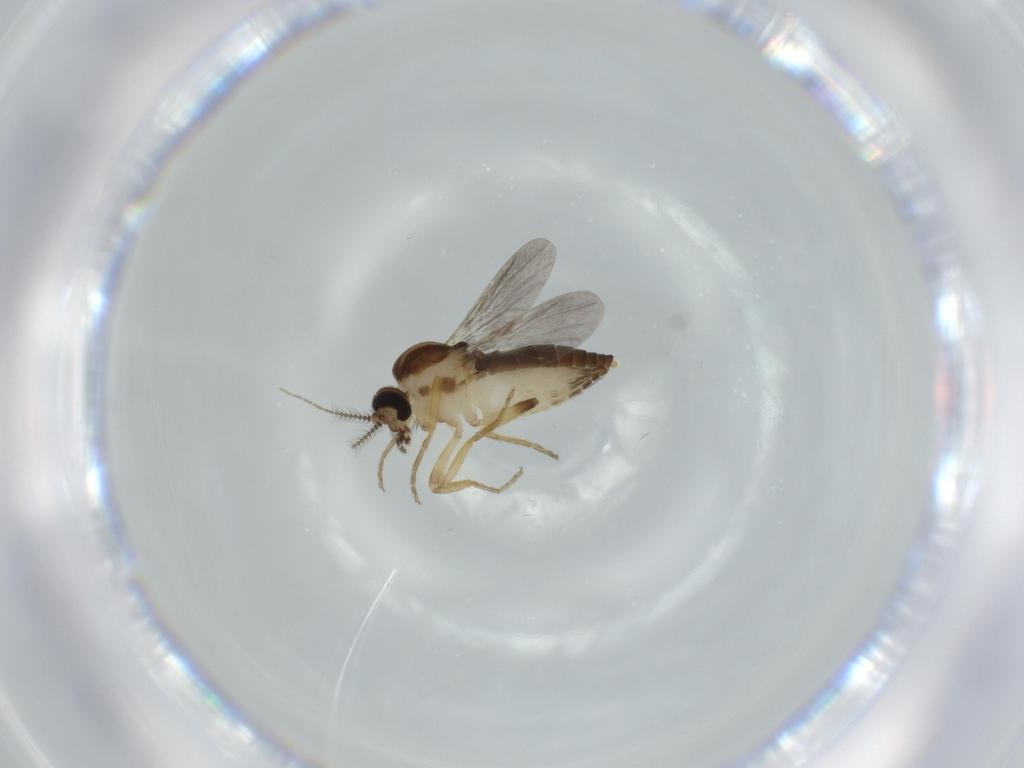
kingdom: Animalia
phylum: Arthropoda
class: Insecta
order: Diptera
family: Ceratopogonidae
